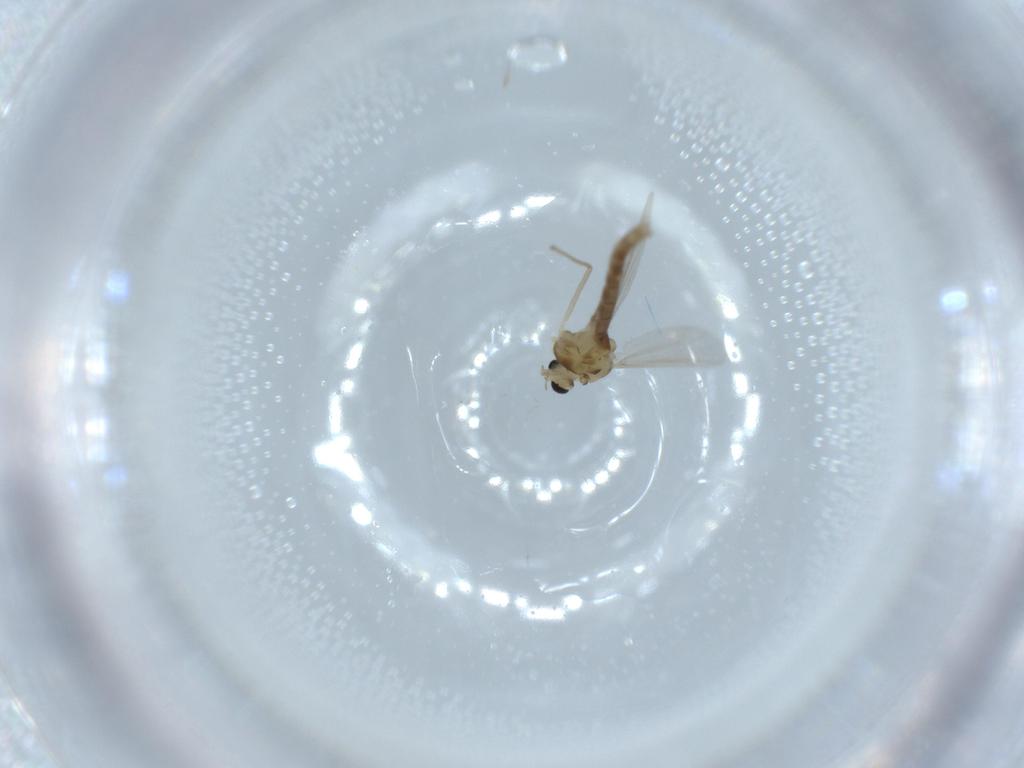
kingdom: Animalia
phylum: Arthropoda
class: Insecta
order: Diptera
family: Chironomidae
